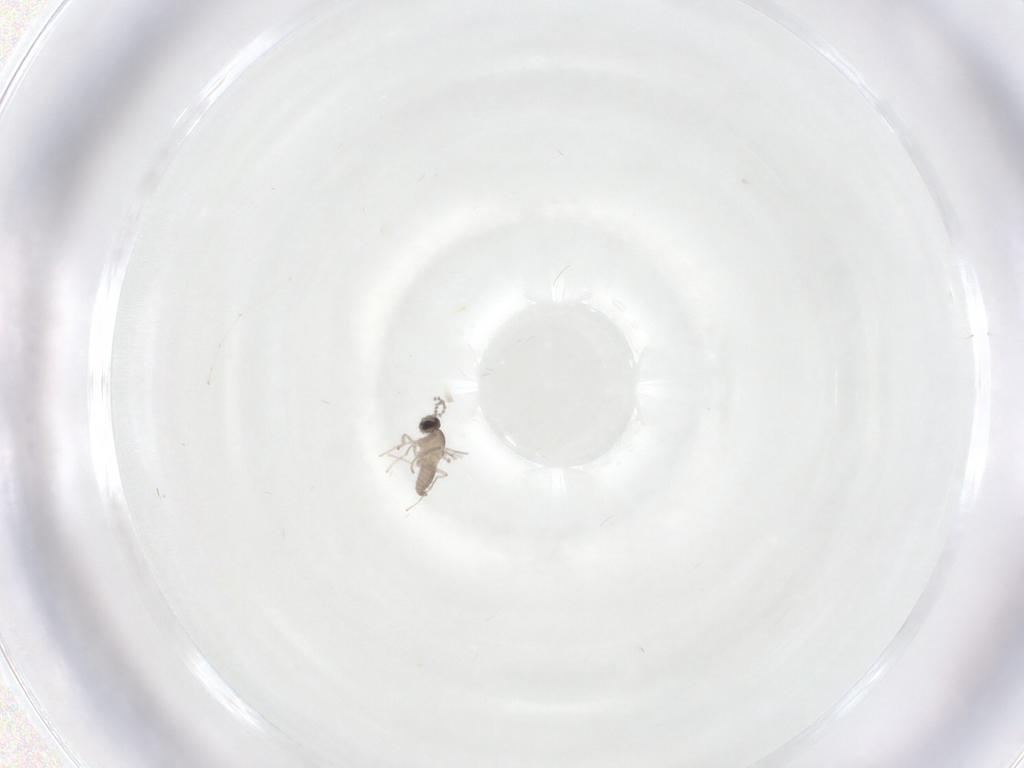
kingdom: Animalia
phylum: Arthropoda
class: Insecta
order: Diptera
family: Cecidomyiidae
